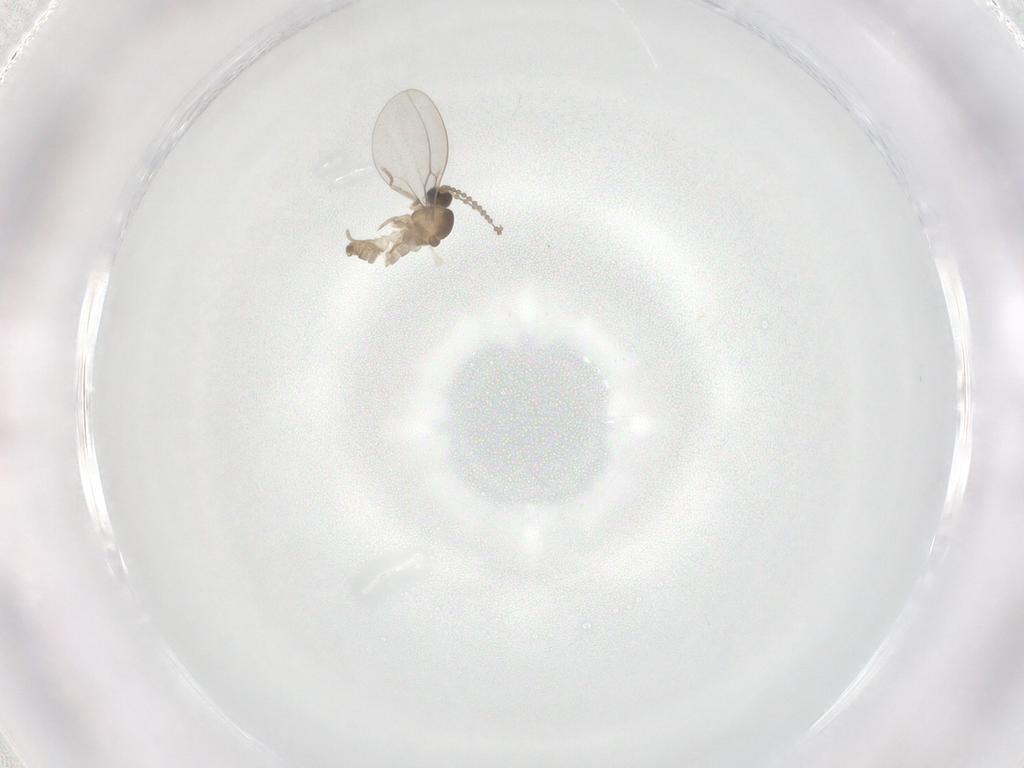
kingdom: Animalia
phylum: Arthropoda
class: Insecta
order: Diptera
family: Cecidomyiidae
